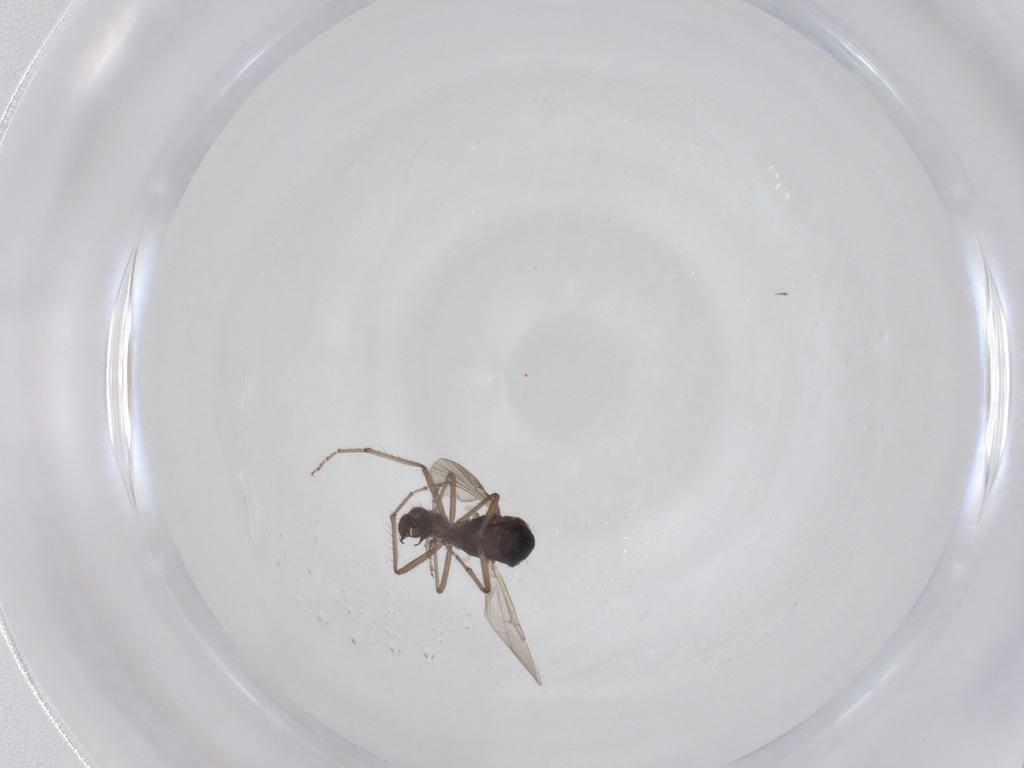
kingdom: Animalia
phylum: Arthropoda
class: Insecta
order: Diptera
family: Ceratopogonidae
